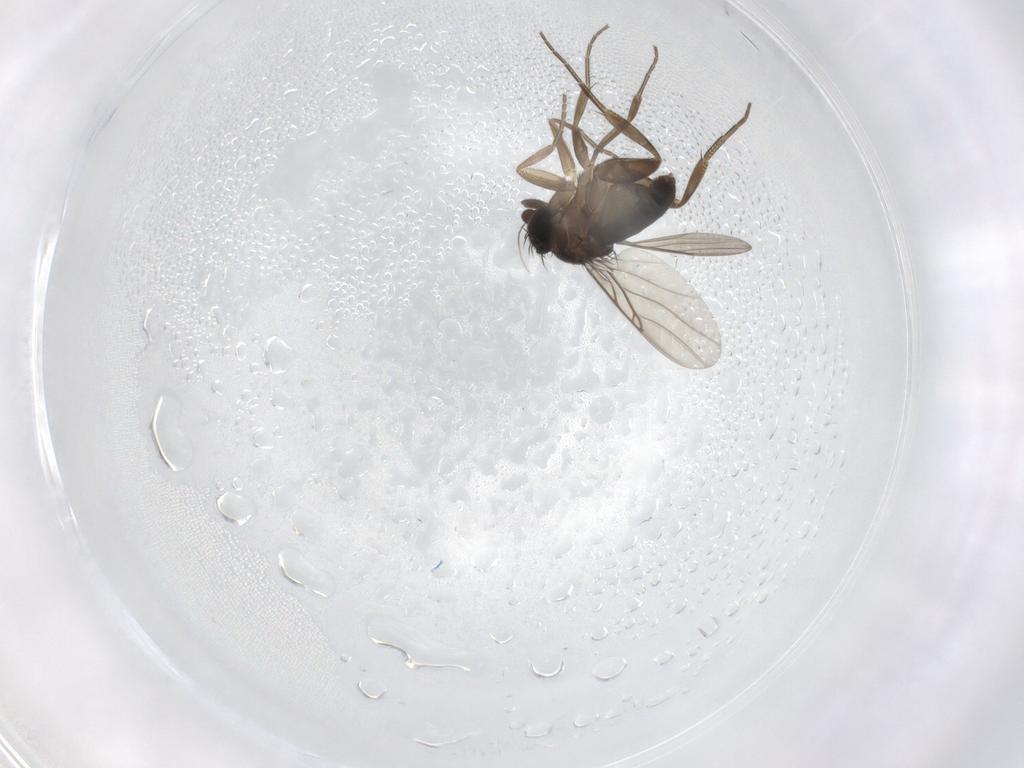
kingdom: Animalia
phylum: Arthropoda
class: Insecta
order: Diptera
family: Phoridae
